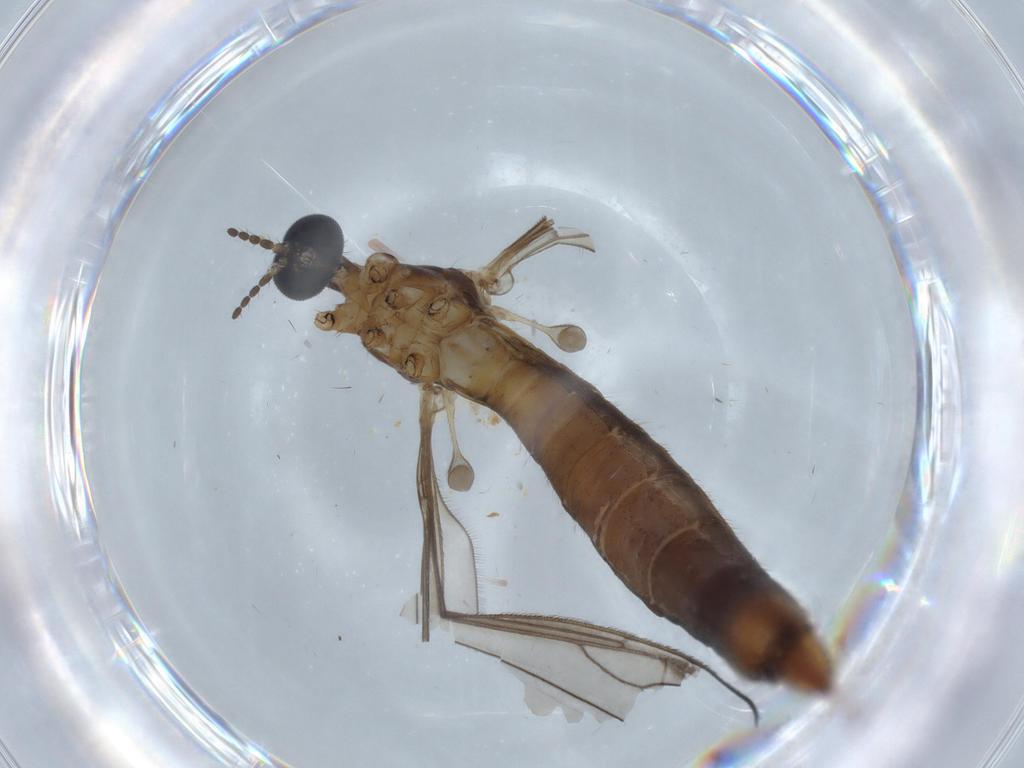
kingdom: Animalia
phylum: Arthropoda
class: Insecta
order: Diptera
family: Cecidomyiidae
